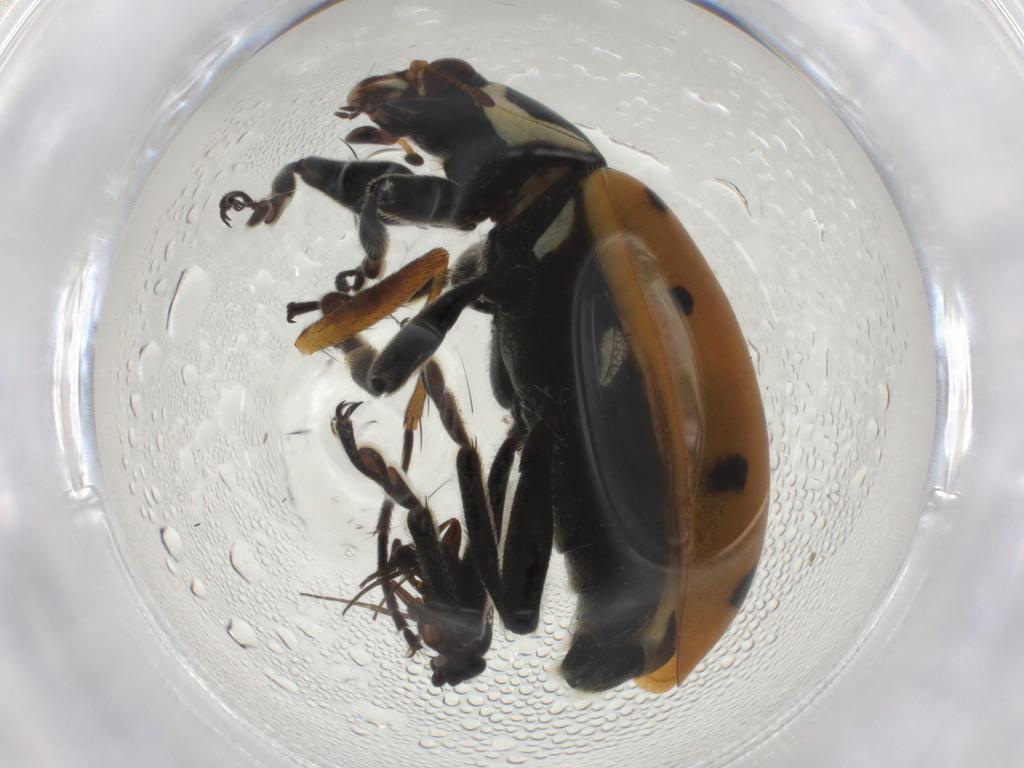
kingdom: Animalia
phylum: Arthropoda
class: Insecta
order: Coleoptera
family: Coccinellidae
